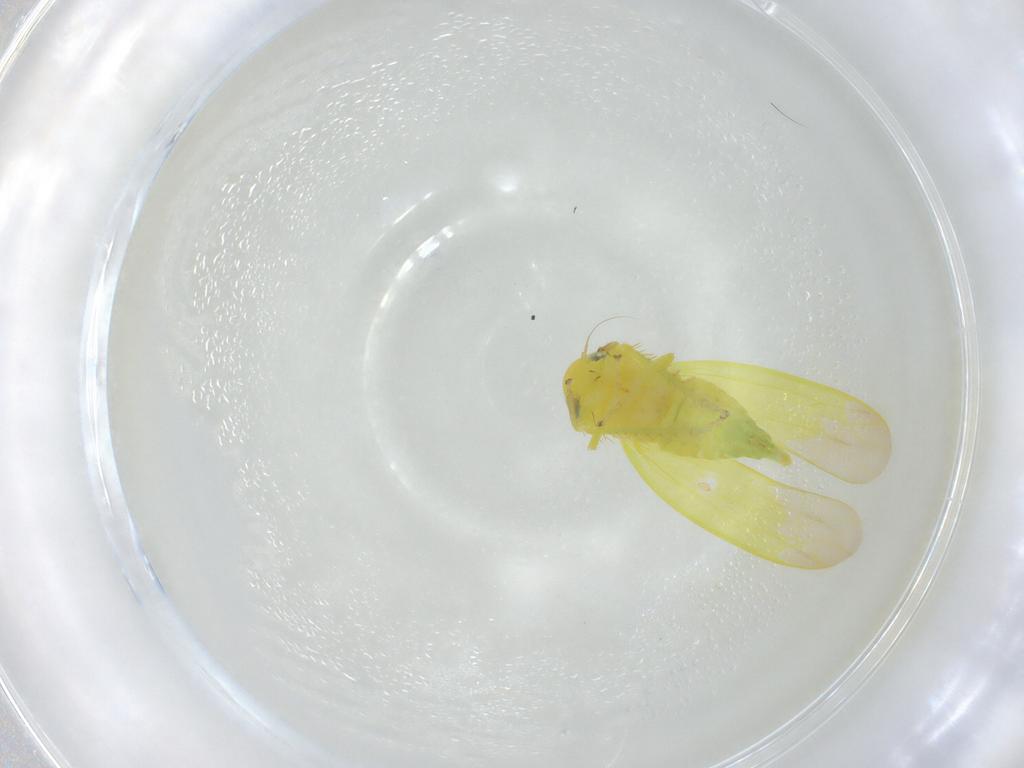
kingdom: Animalia
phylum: Arthropoda
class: Insecta
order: Hemiptera
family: Cicadellidae
